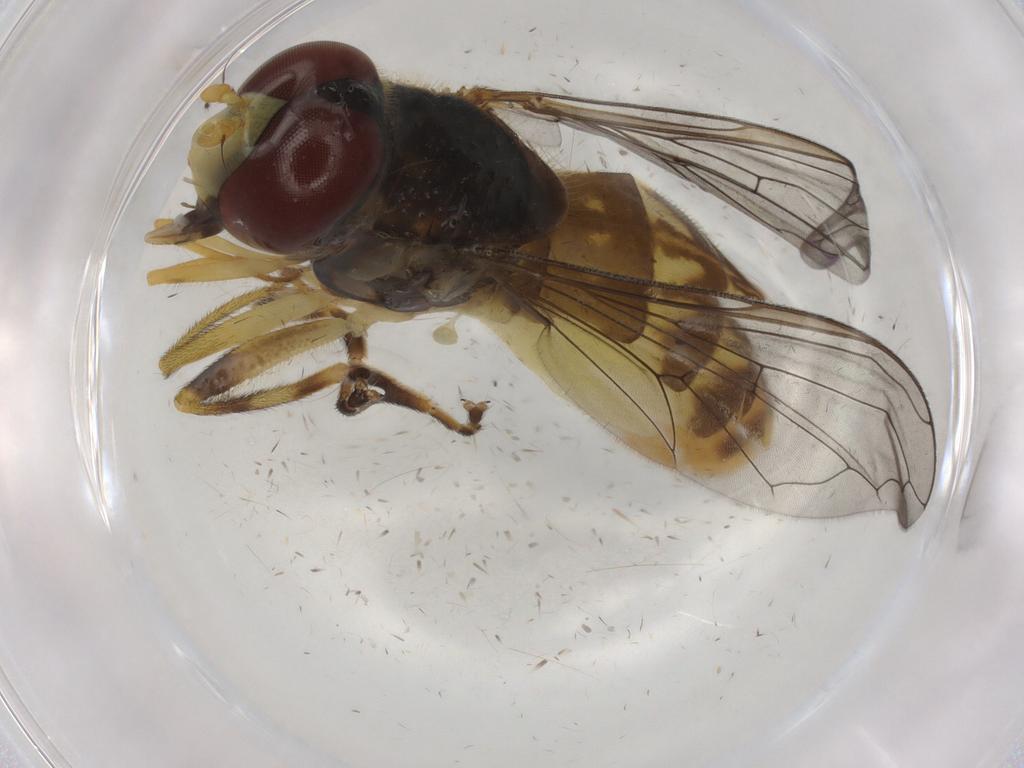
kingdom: Animalia
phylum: Arthropoda
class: Insecta
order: Diptera
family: Syrphidae
